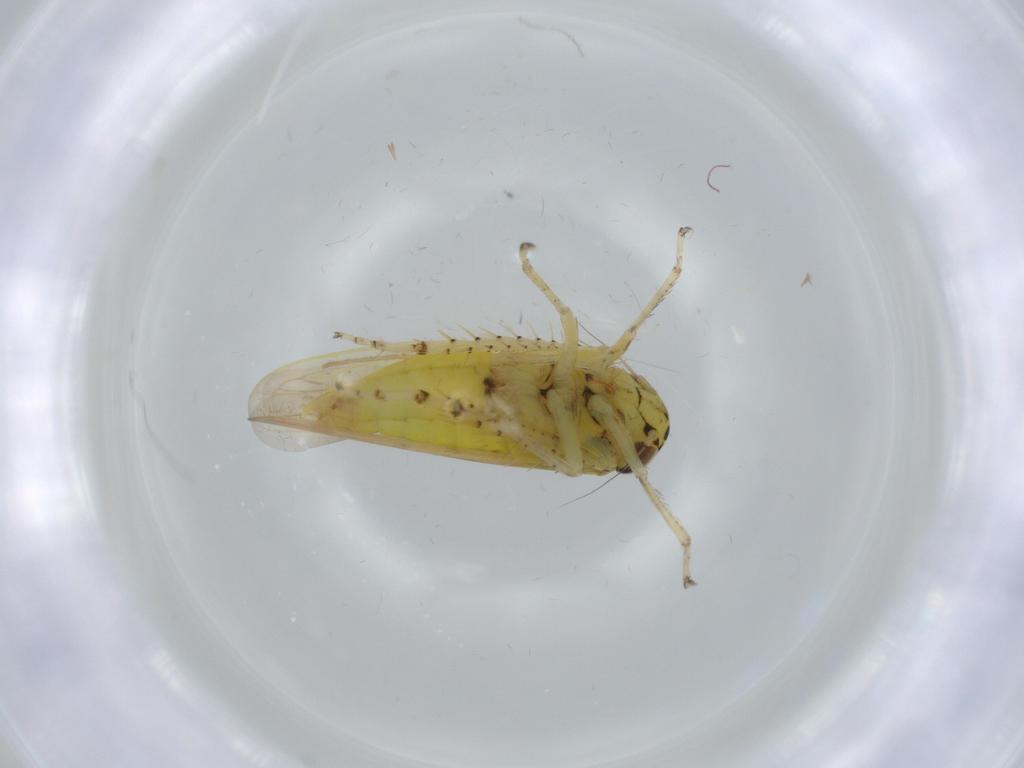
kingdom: Animalia
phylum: Arthropoda
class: Insecta
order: Hemiptera
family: Cicadellidae
